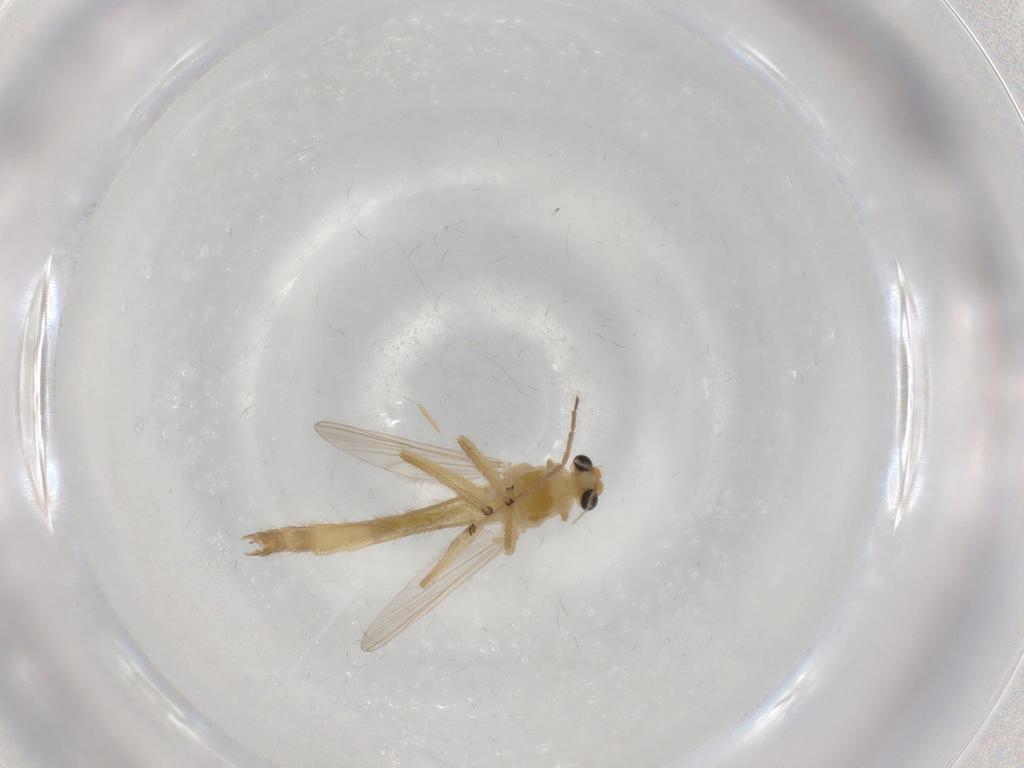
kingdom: Animalia
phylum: Arthropoda
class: Insecta
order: Diptera
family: Chironomidae
